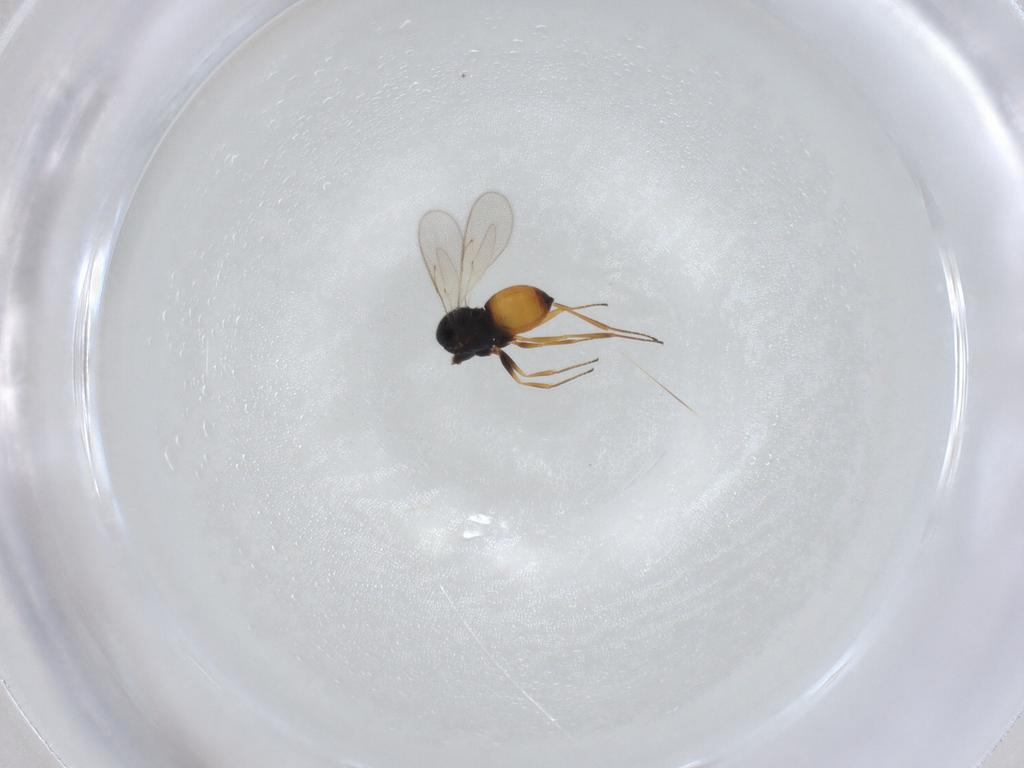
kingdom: Animalia
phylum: Arthropoda
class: Insecta
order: Hymenoptera
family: Scelionidae
